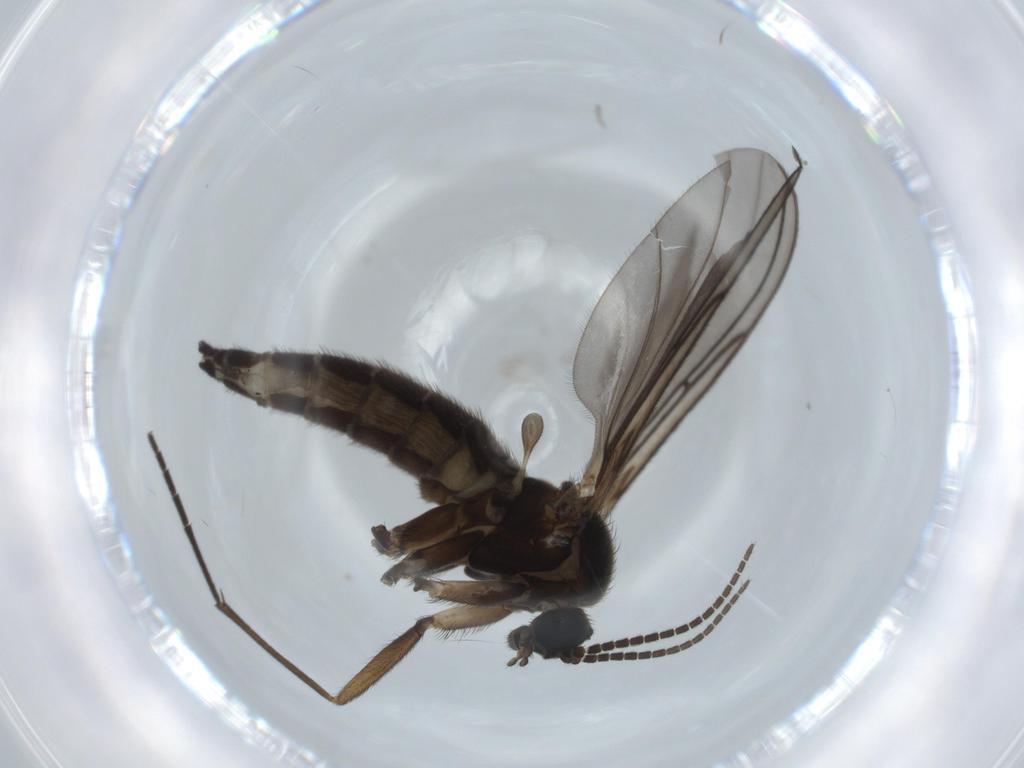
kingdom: Animalia
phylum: Arthropoda
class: Insecta
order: Diptera
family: Sciaridae
